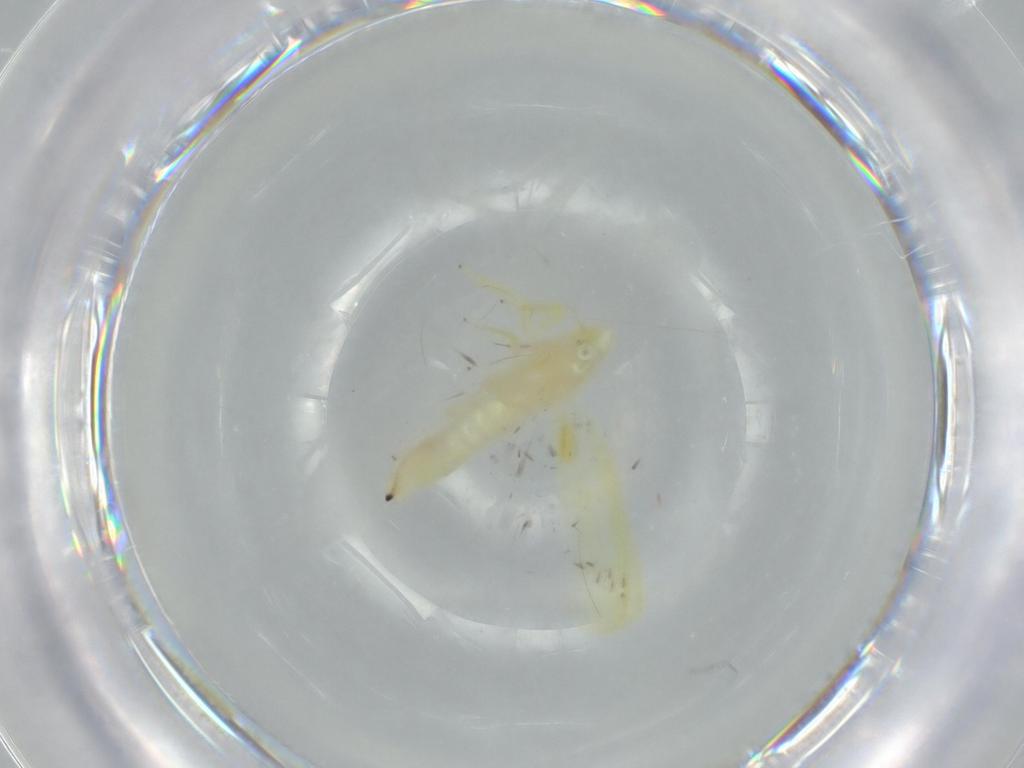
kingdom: Animalia
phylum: Arthropoda
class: Insecta
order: Hemiptera
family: Cicadellidae
